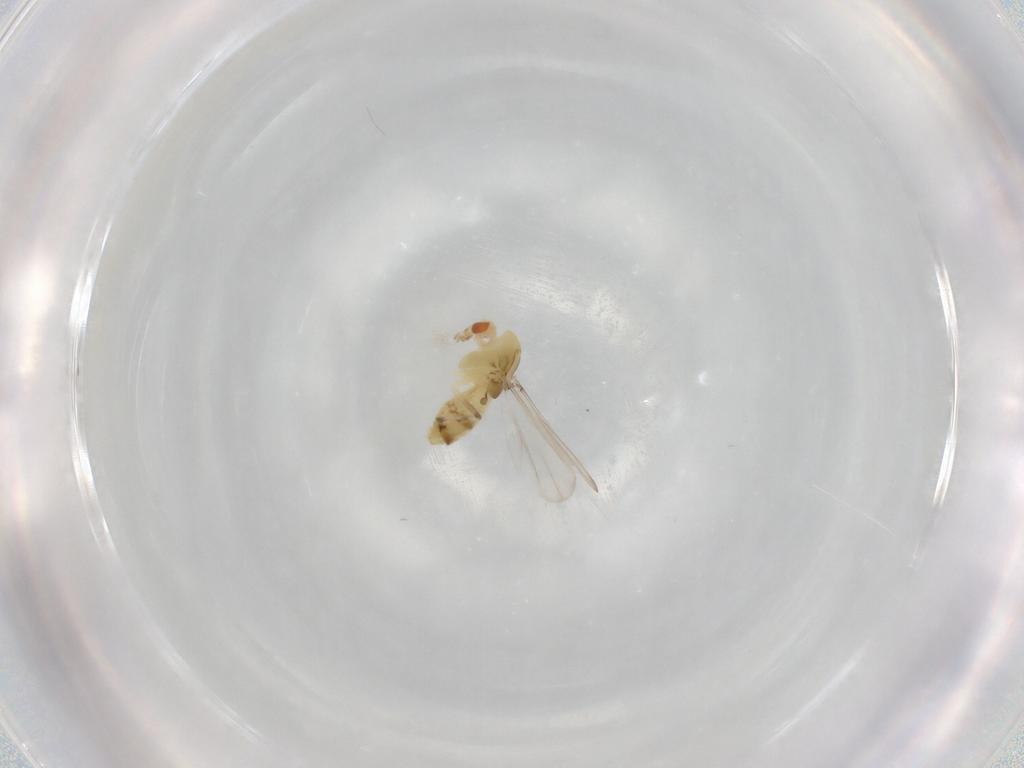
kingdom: Animalia
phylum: Arthropoda
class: Insecta
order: Diptera
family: Chironomidae
